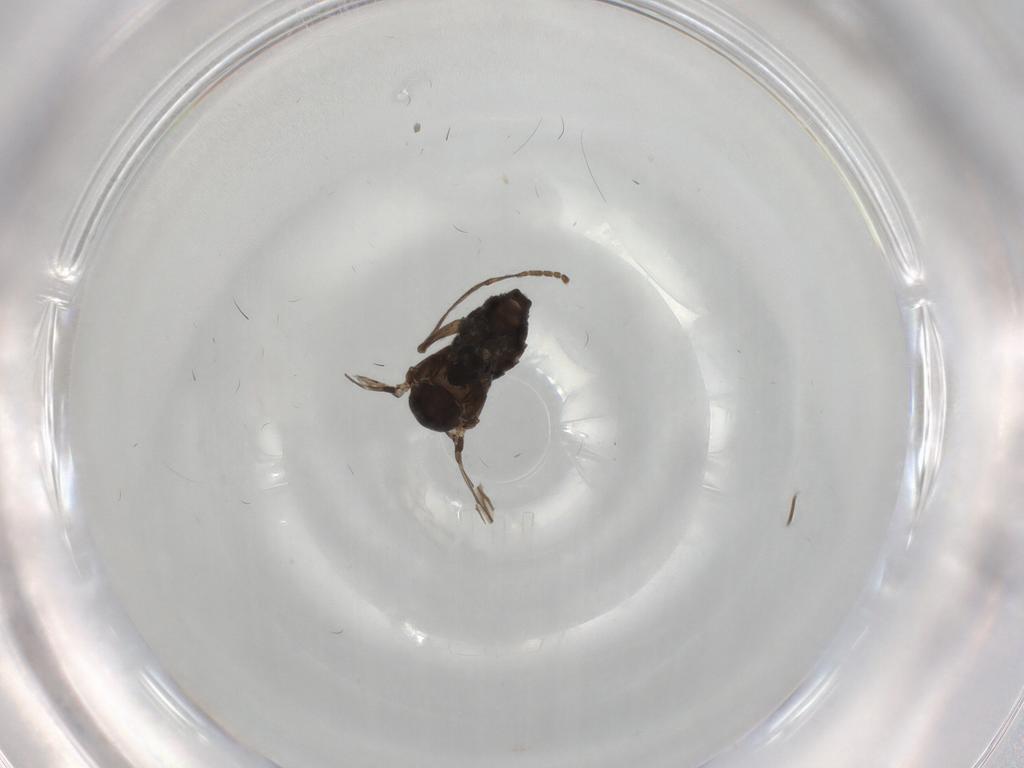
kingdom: Animalia
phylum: Arthropoda
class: Insecta
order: Diptera
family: Psychodidae
